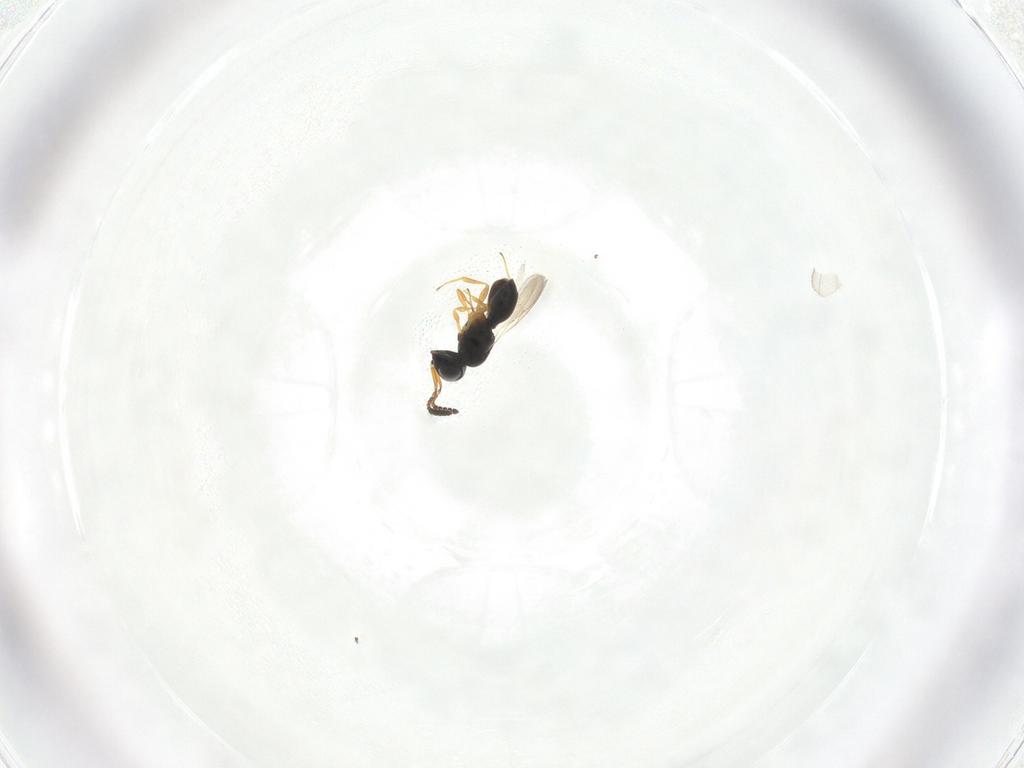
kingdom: Animalia
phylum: Arthropoda
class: Insecta
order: Hymenoptera
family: Scelionidae
